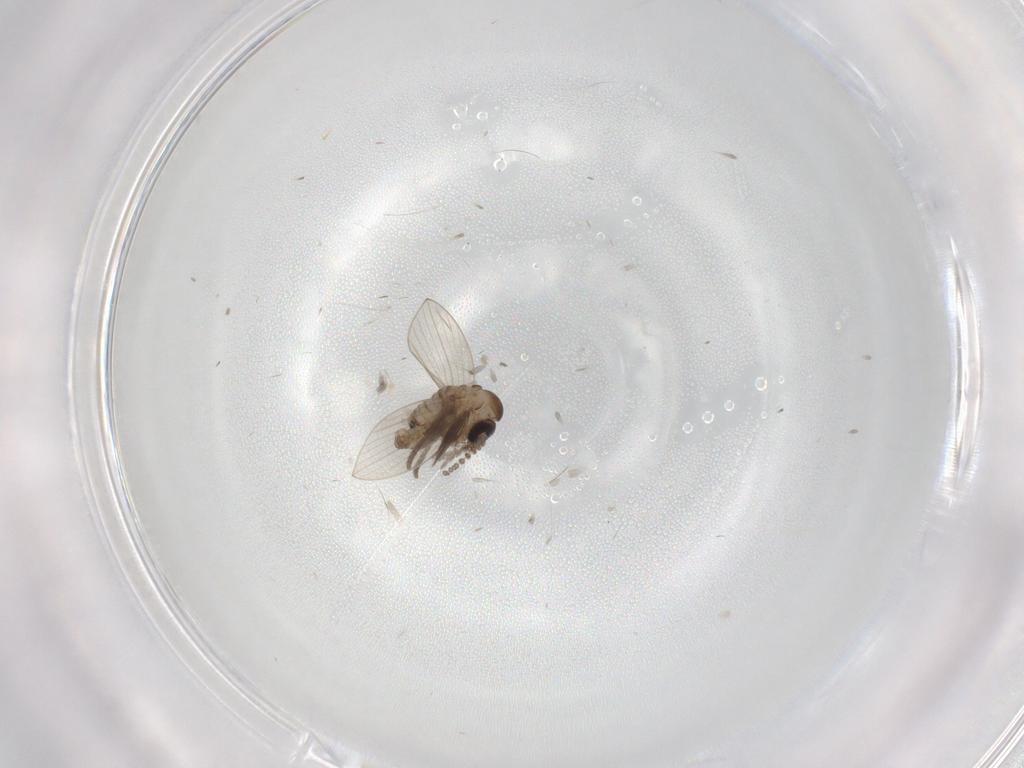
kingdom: Animalia
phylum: Arthropoda
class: Insecta
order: Diptera
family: Psychodidae
